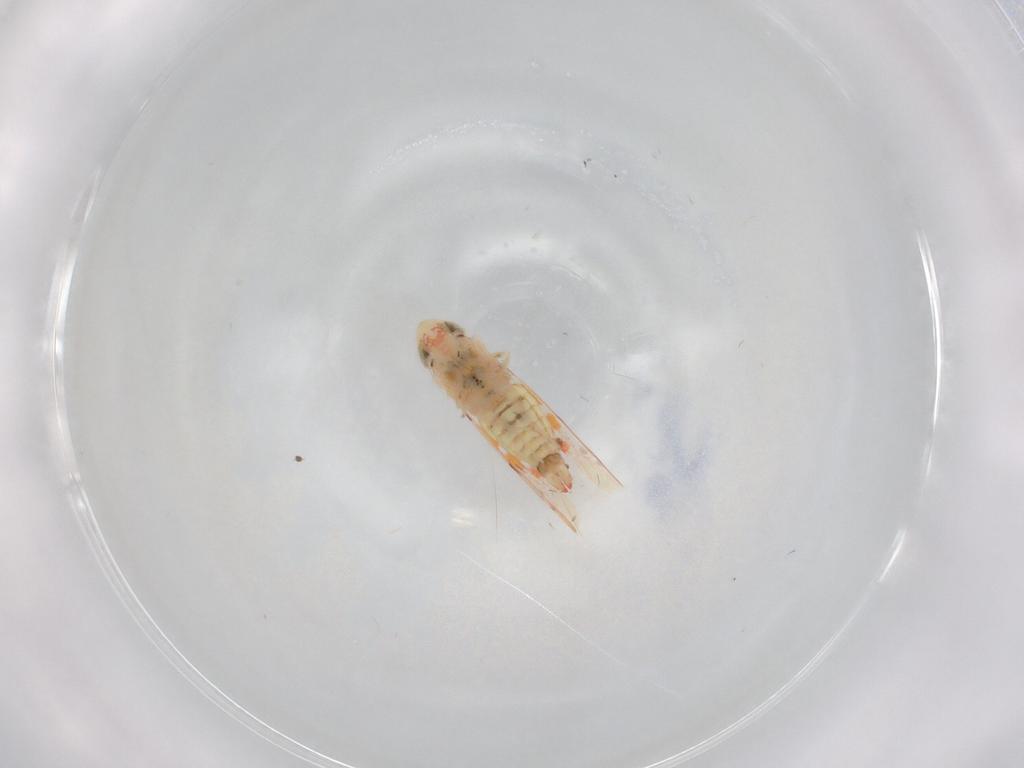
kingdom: Animalia
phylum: Arthropoda
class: Insecta
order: Hemiptera
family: Cicadellidae
